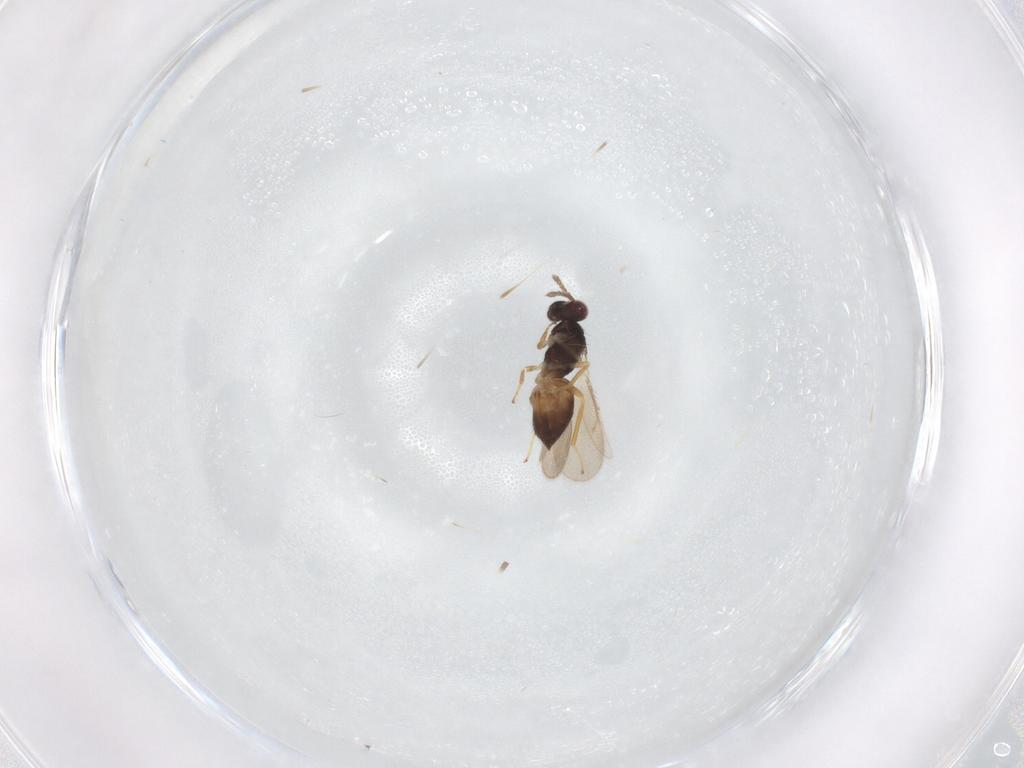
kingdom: Animalia
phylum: Arthropoda
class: Insecta
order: Hymenoptera
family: Eulophidae
